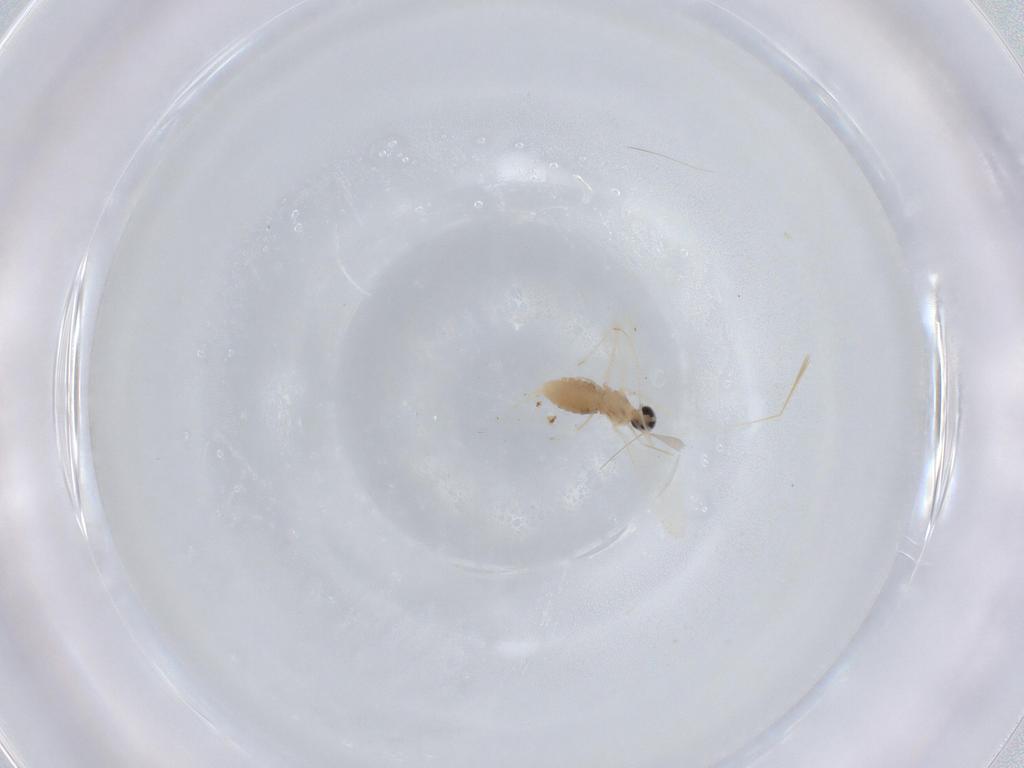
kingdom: Animalia
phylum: Arthropoda
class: Insecta
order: Diptera
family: Cecidomyiidae
